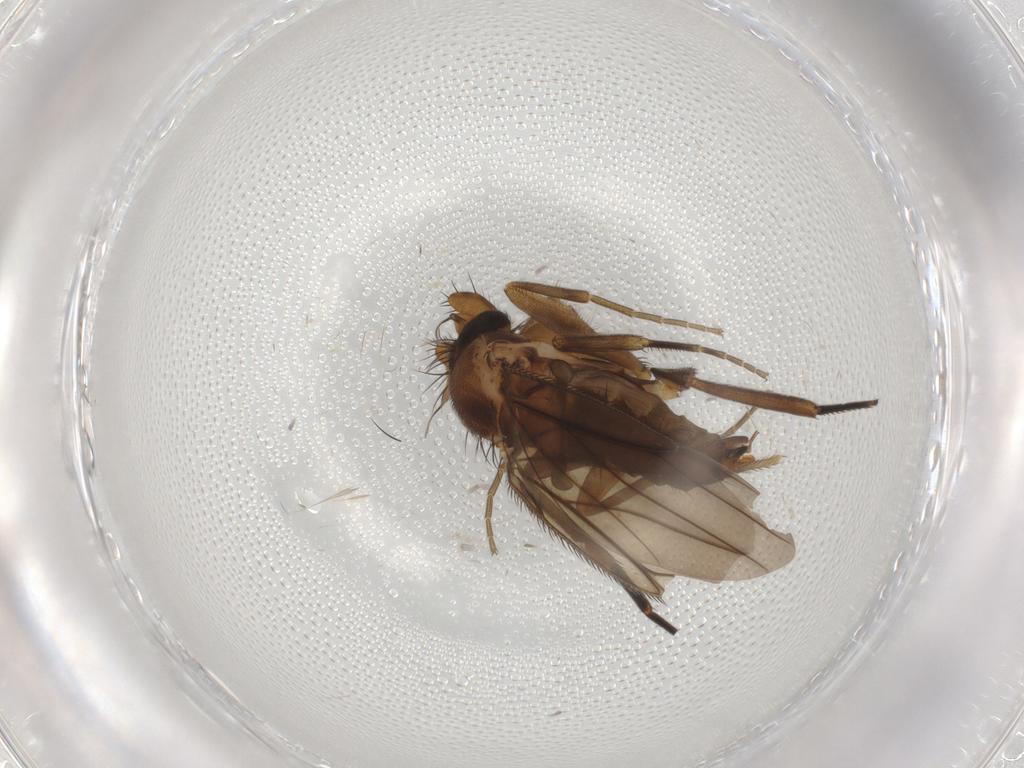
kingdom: Animalia
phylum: Arthropoda
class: Insecta
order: Diptera
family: Phoridae
